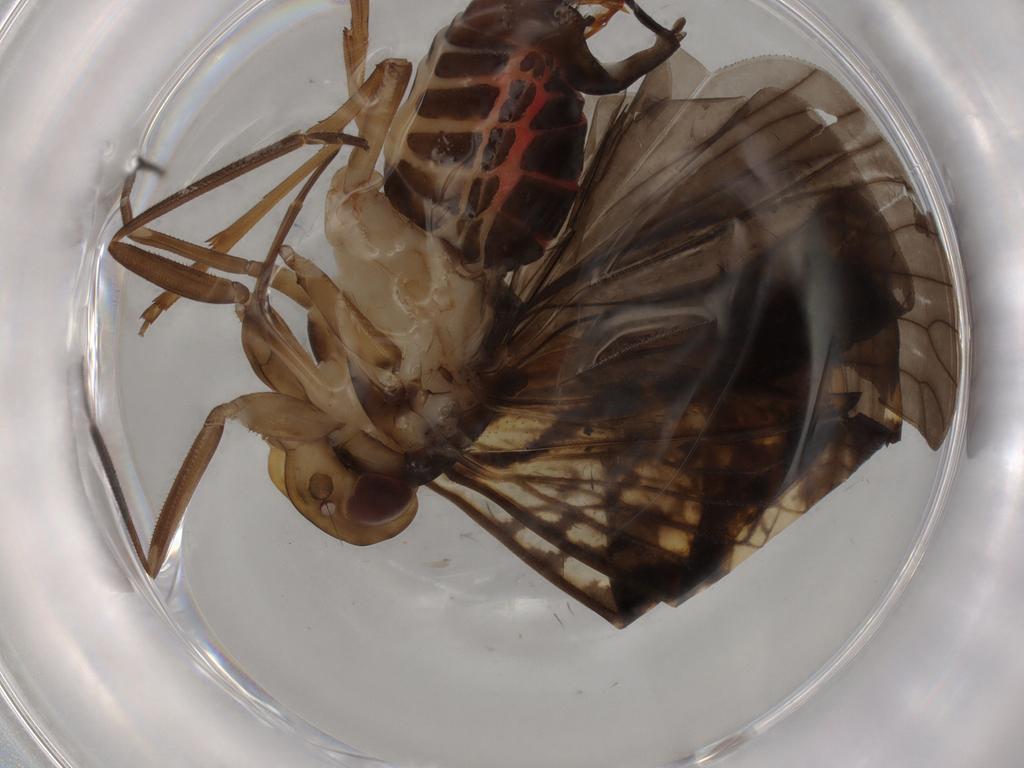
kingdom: Animalia
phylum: Arthropoda
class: Insecta
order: Hemiptera
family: Cixiidae
